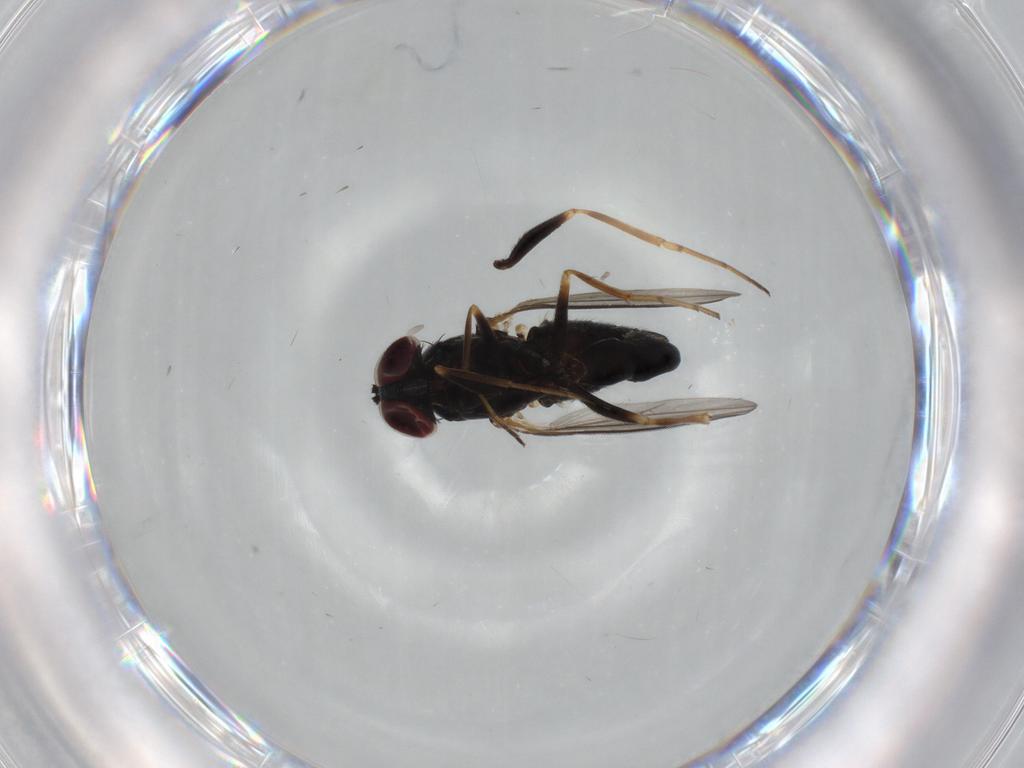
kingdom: Animalia
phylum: Arthropoda
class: Insecta
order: Diptera
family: Dolichopodidae
